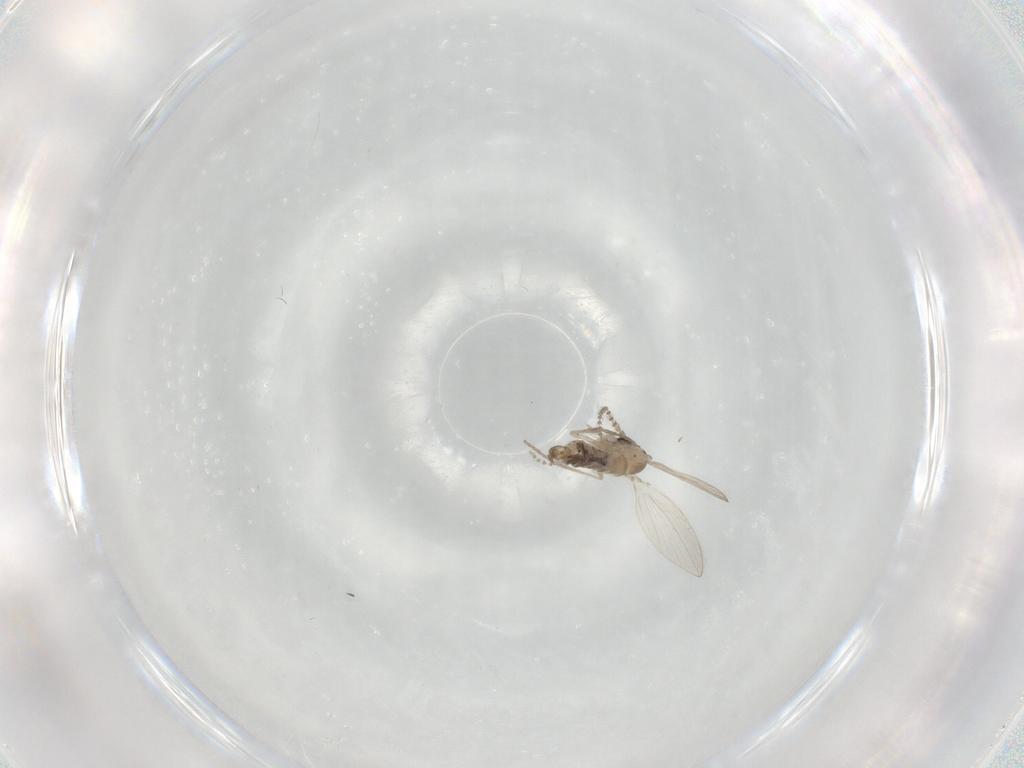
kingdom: Animalia
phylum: Arthropoda
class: Insecta
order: Diptera
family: Psychodidae
